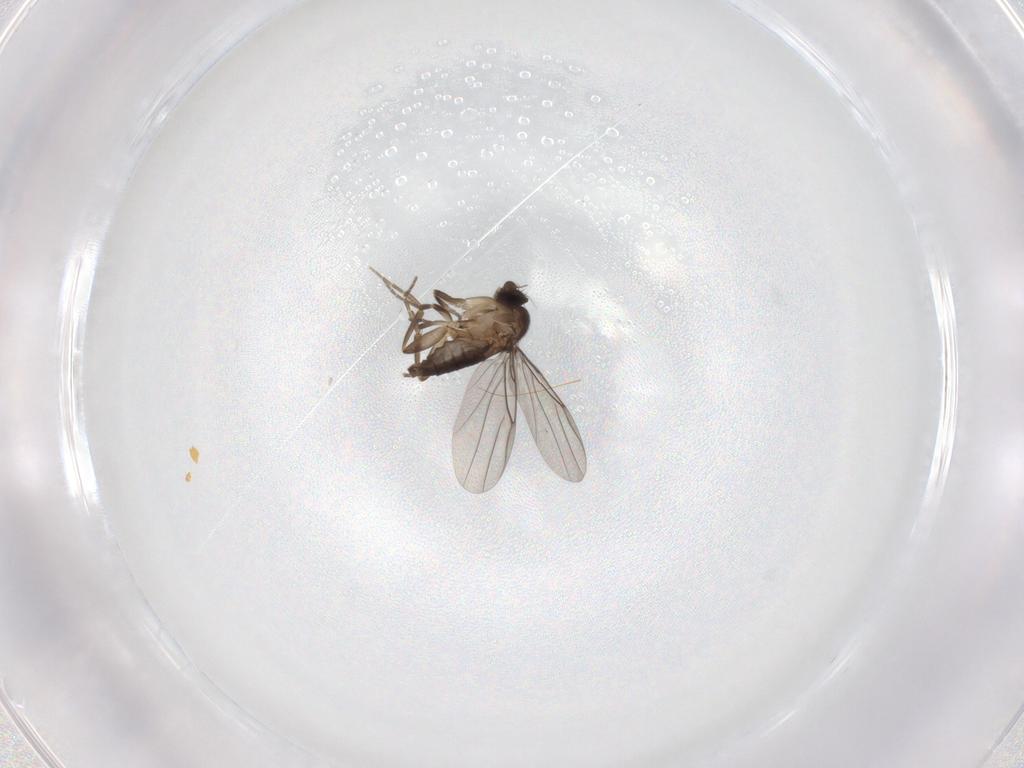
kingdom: Animalia
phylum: Arthropoda
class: Insecta
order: Diptera
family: Phoridae
